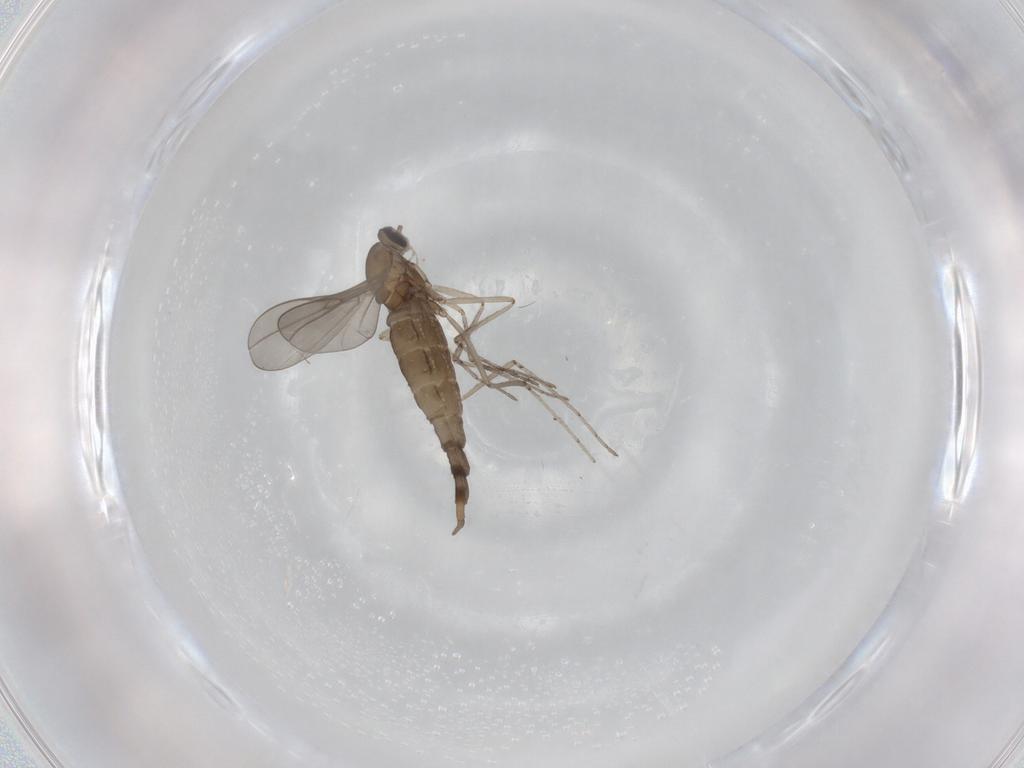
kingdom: Animalia
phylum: Arthropoda
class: Insecta
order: Diptera
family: Cecidomyiidae
